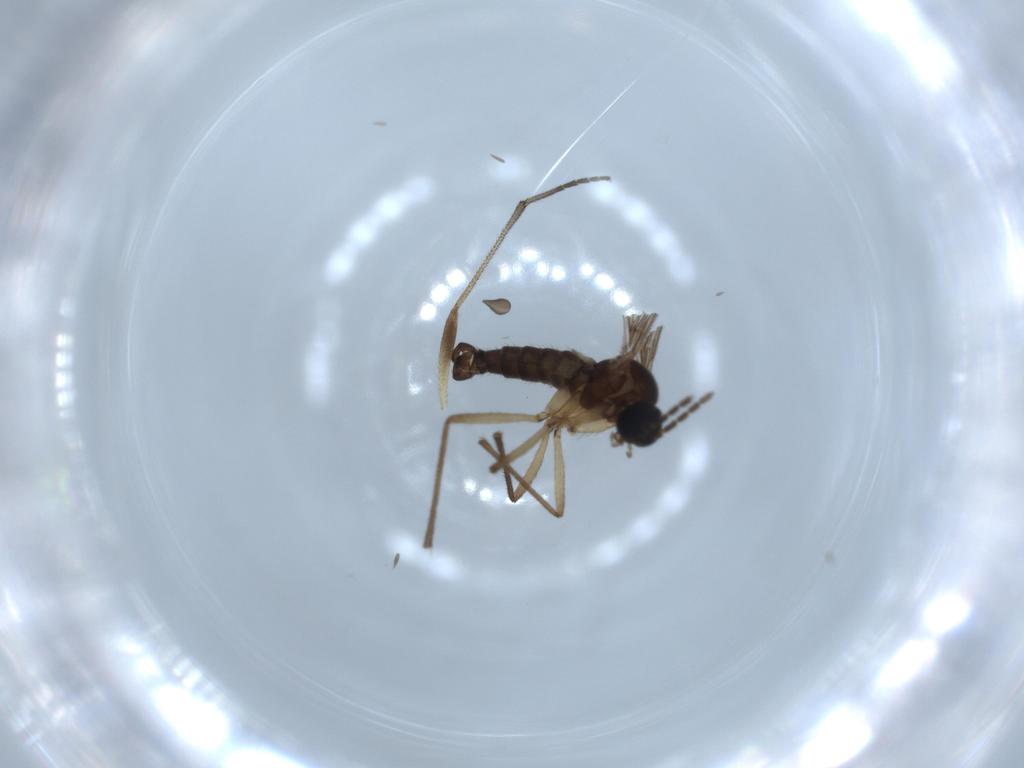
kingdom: Animalia
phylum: Arthropoda
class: Insecta
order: Diptera
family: Sciaridae
